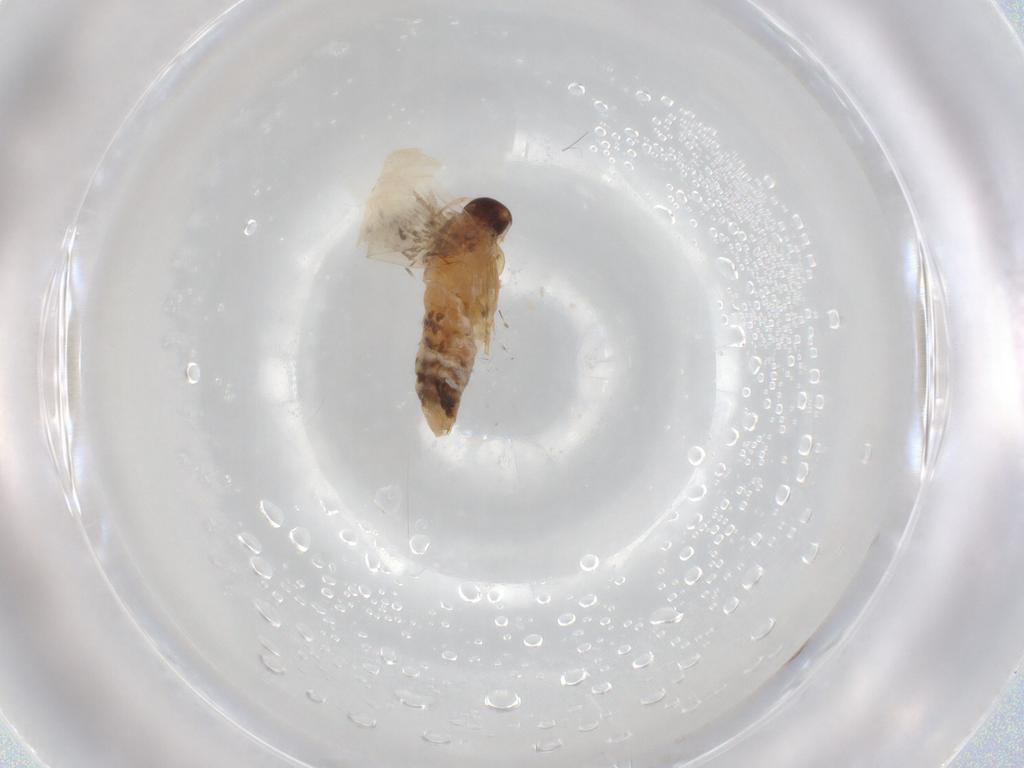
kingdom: Animalia
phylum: Arthropoda
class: Insecta
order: Lepidoptera
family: Oecophoridae
